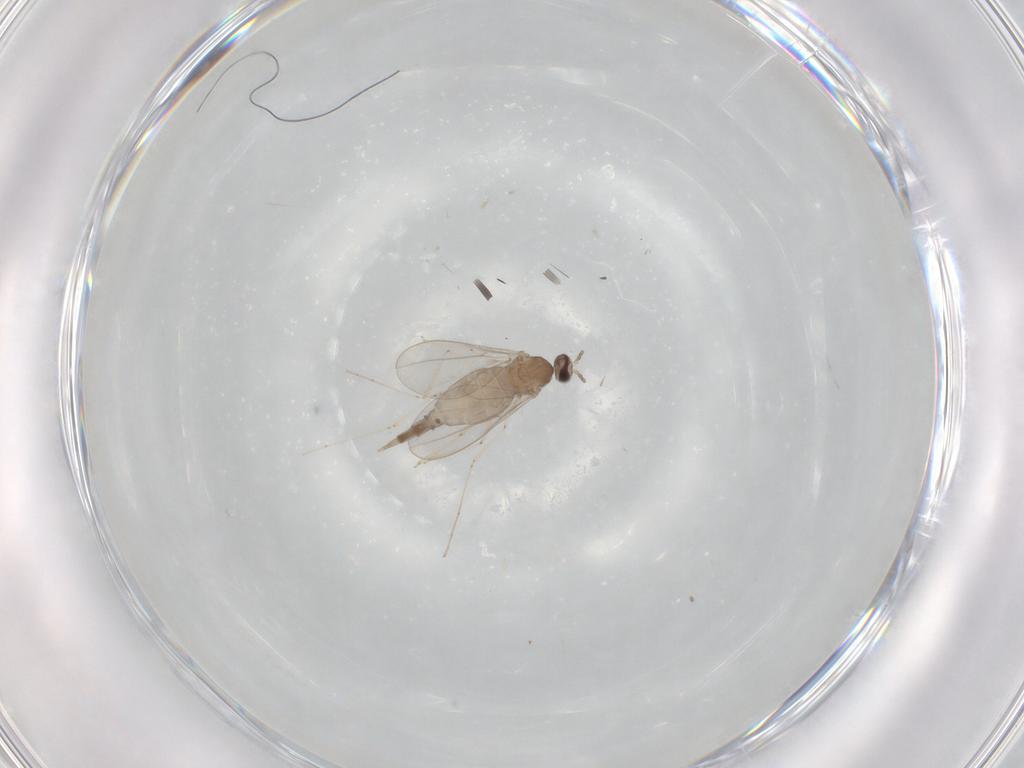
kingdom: Animalia
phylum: Arthropoda
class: Insecta
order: Diptera
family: Cecidomyiidae
